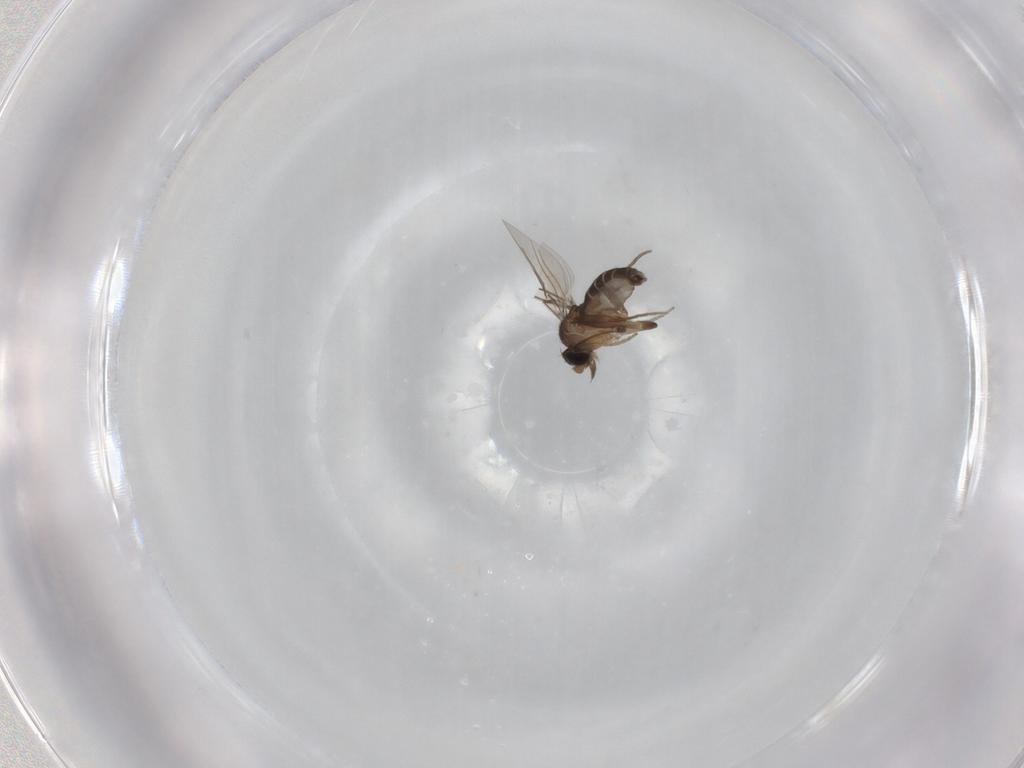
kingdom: Animalia
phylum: Arthropoda
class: Insecta
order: Diptera
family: Phoridae
